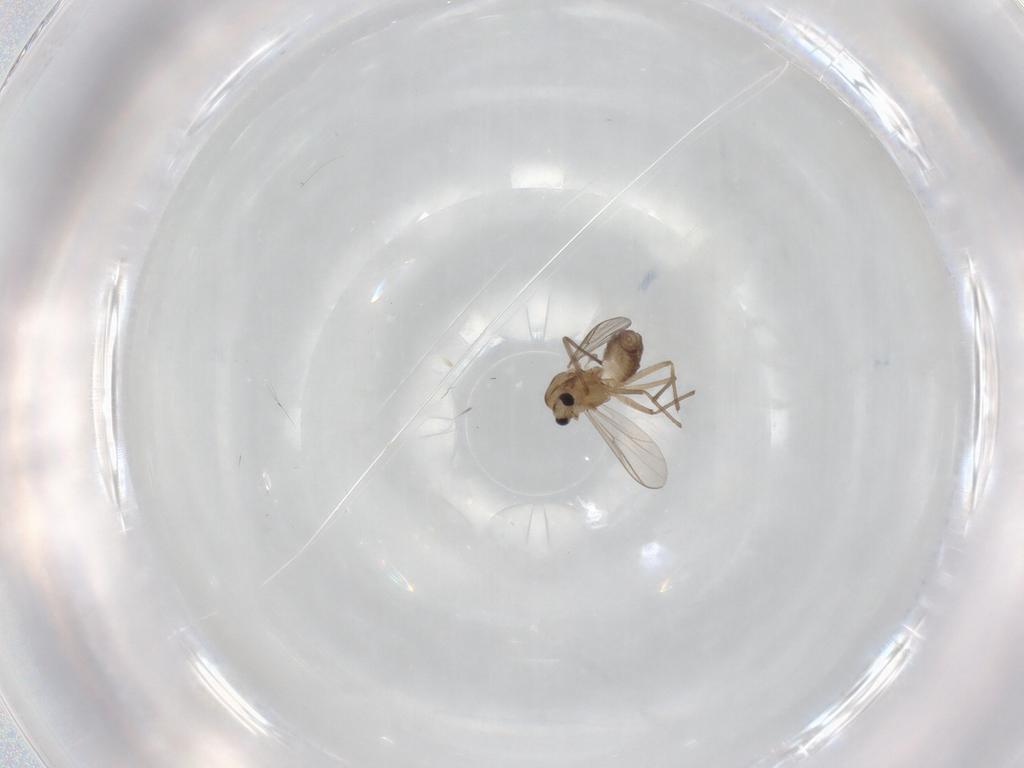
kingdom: Animalia
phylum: Arthropoda
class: Insecta
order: Diptera
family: Chironomidae
